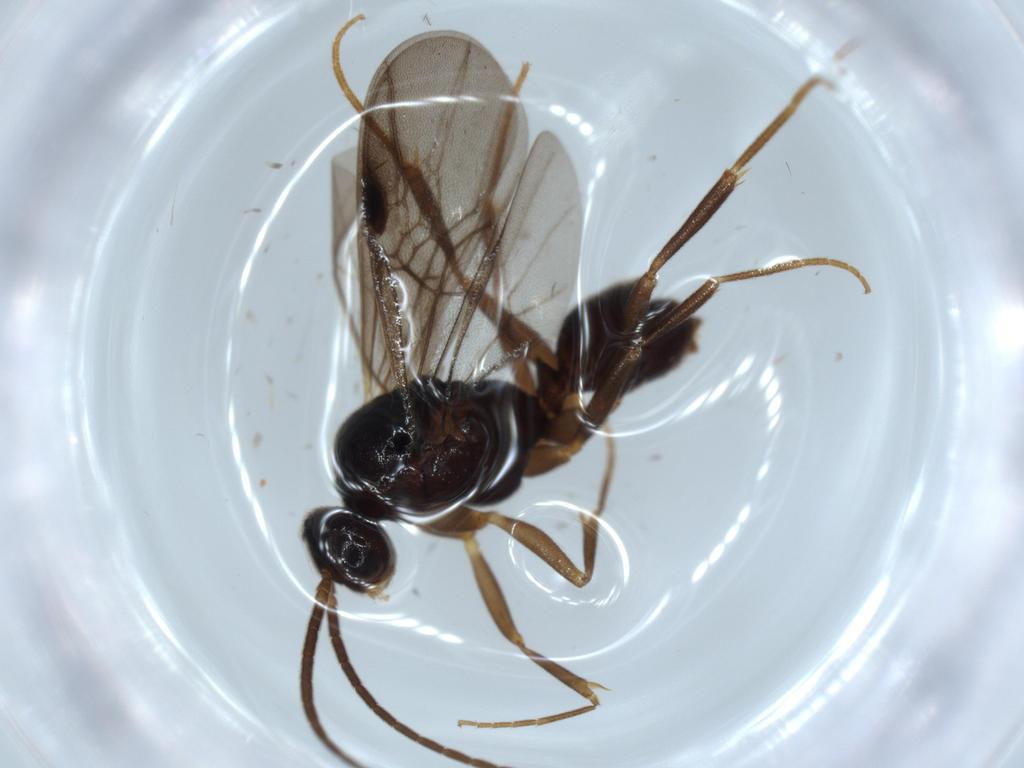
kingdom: Animalia
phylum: Arthropoda
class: Insecta
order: Hymenoptera
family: Formicidae
